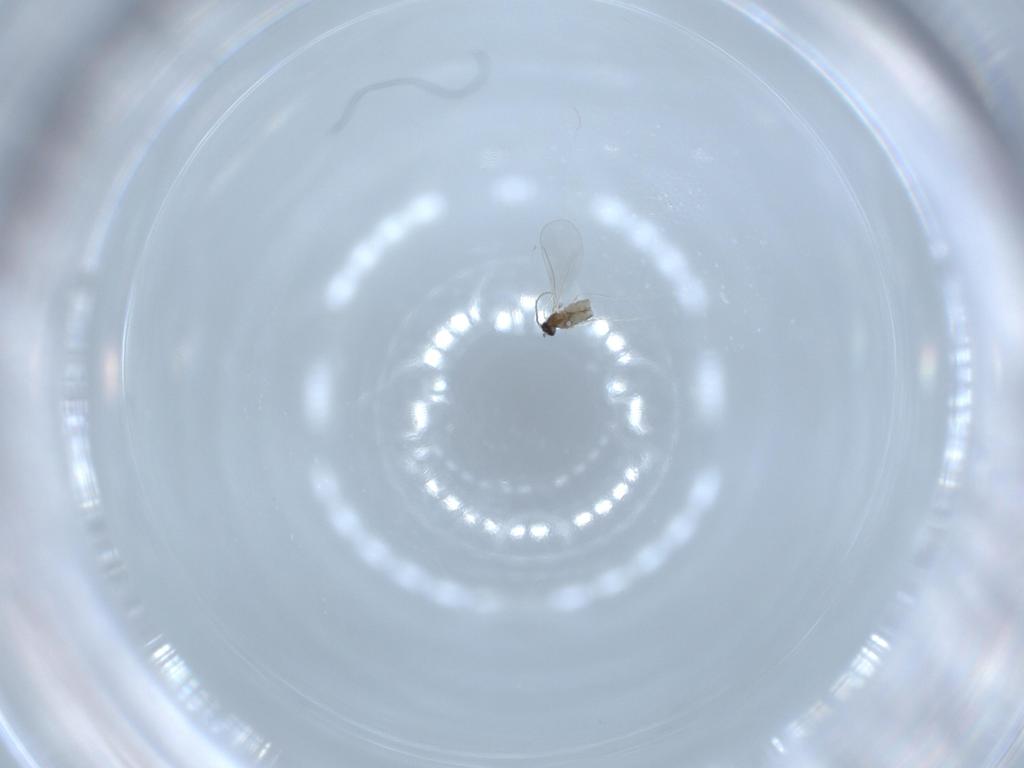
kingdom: Animalia
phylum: Arthropoda
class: Insecta
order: Diptera
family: Cecidomyiidae
